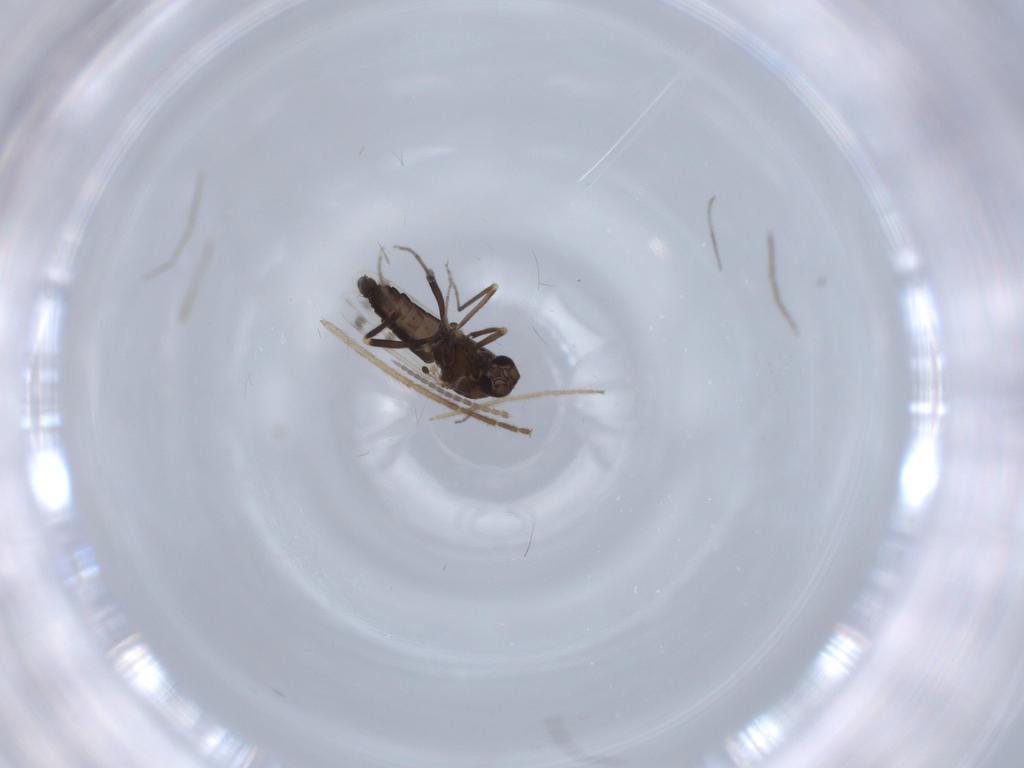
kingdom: Animalia
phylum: Arthropoda
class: Insecta
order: Diptera
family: Ceratopogonidae
